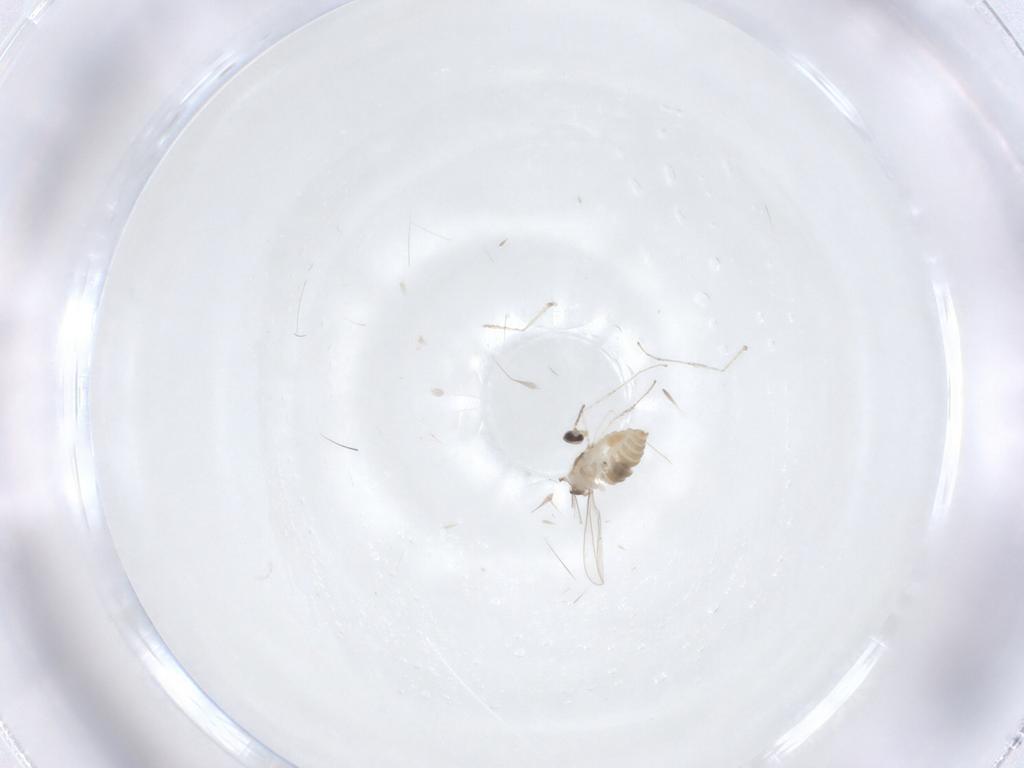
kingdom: Animalia
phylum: Arthropoda
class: Insecta
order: Diptera
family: Cecidomyiidae
